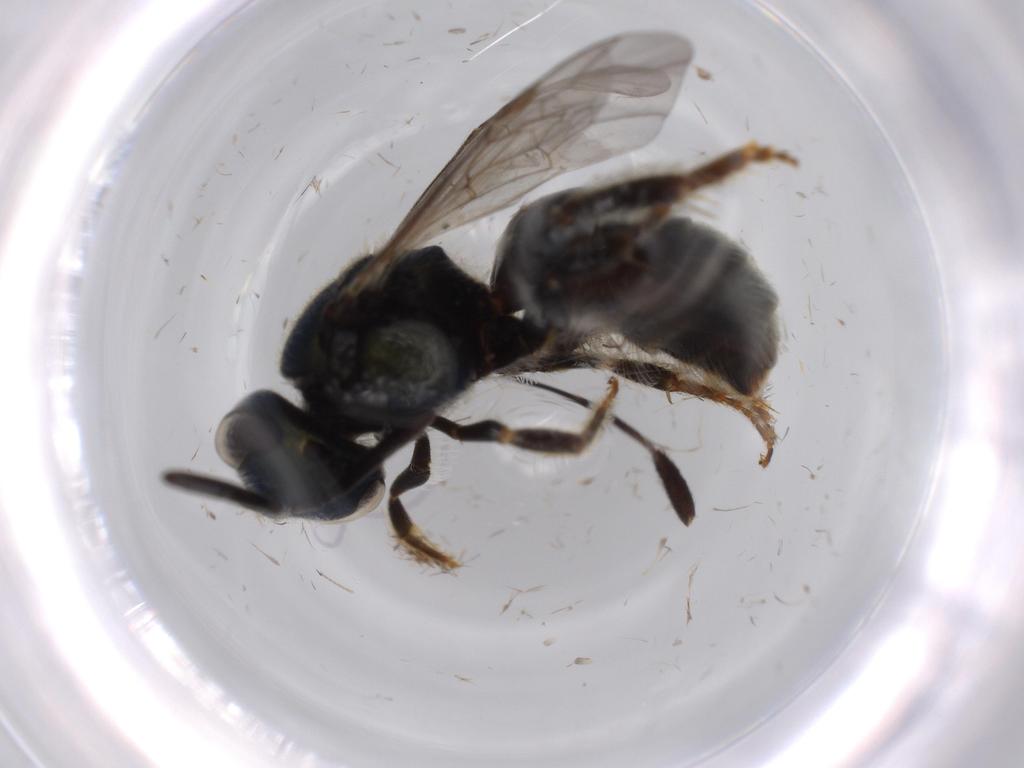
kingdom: Animalia
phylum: Arthropoda
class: Insecta
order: Hymenoptera
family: Halictidae
